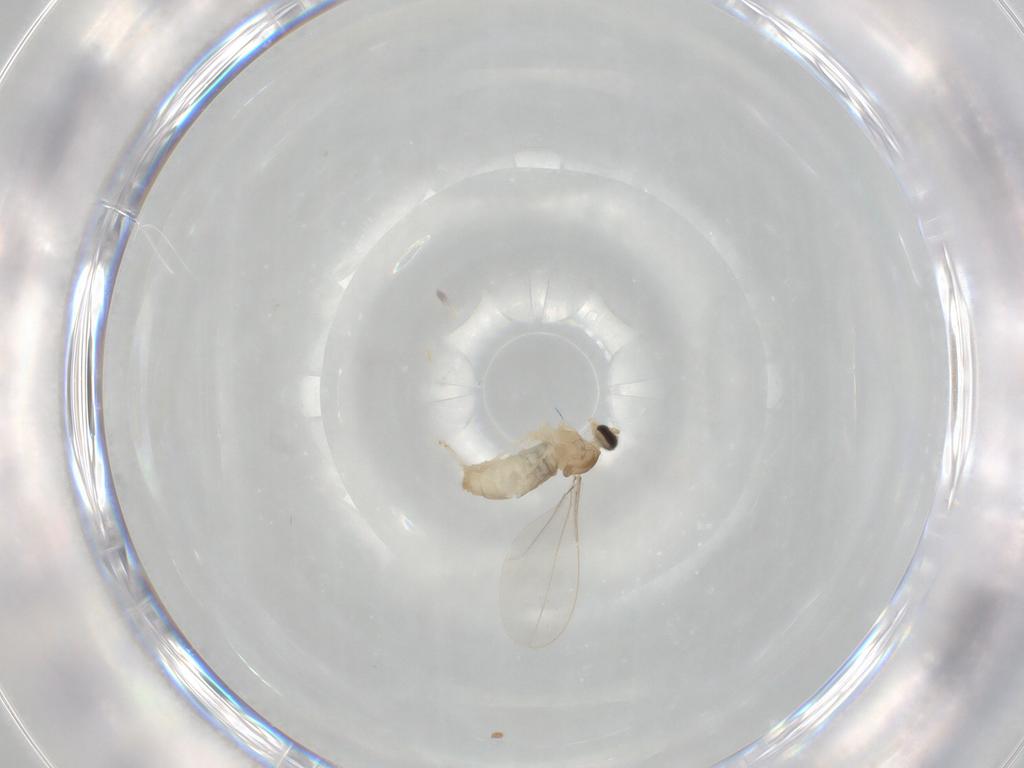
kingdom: Animalia
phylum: Arthropoda
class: Insecta
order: Diptera
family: Cecidomyiidae
